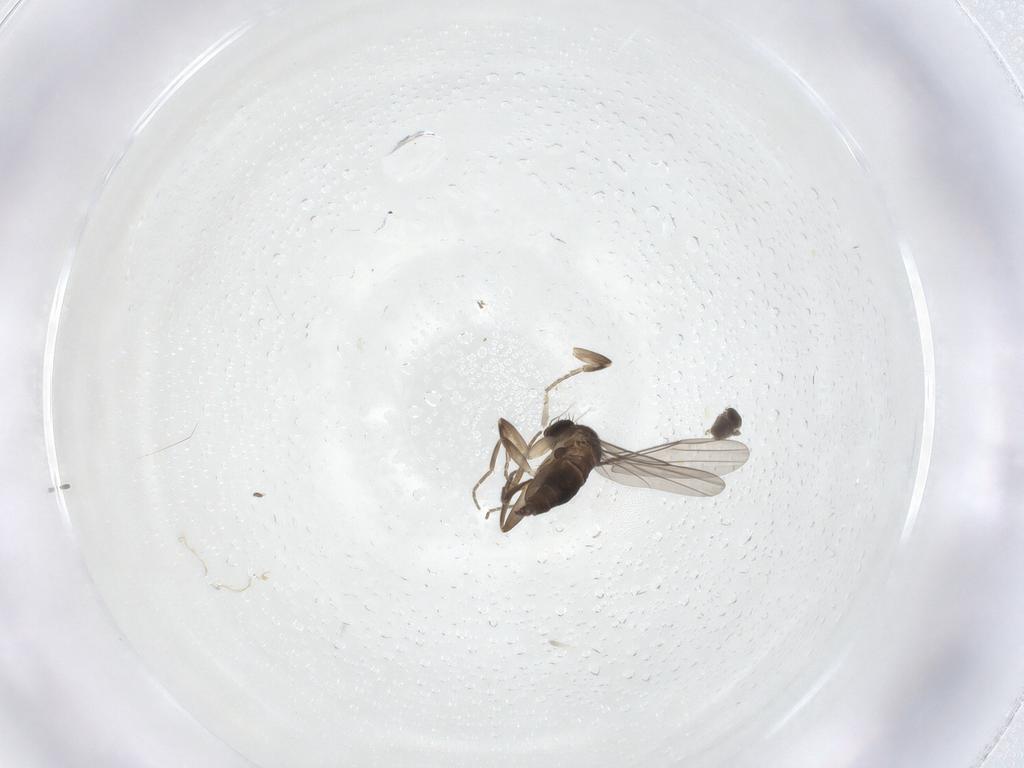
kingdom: Animalia
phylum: Arthropoda
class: Insecta
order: Diptera
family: Phoridae
